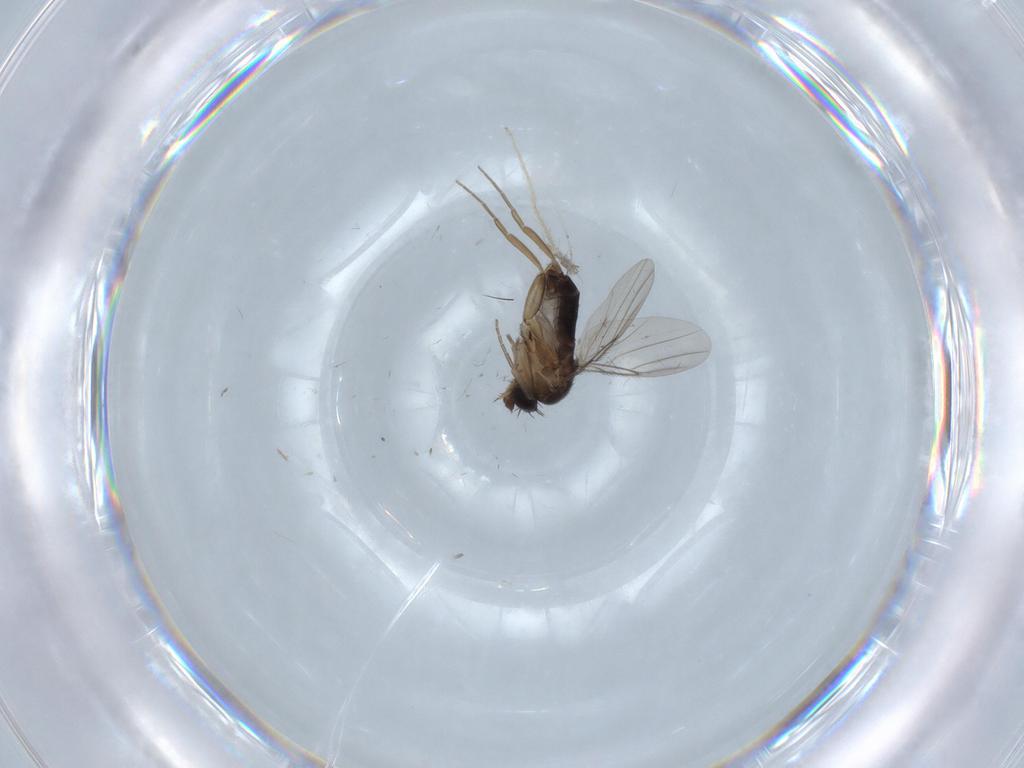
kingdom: Animalia
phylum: Arthropoda
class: Insecta
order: Diptera
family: Phoridae
